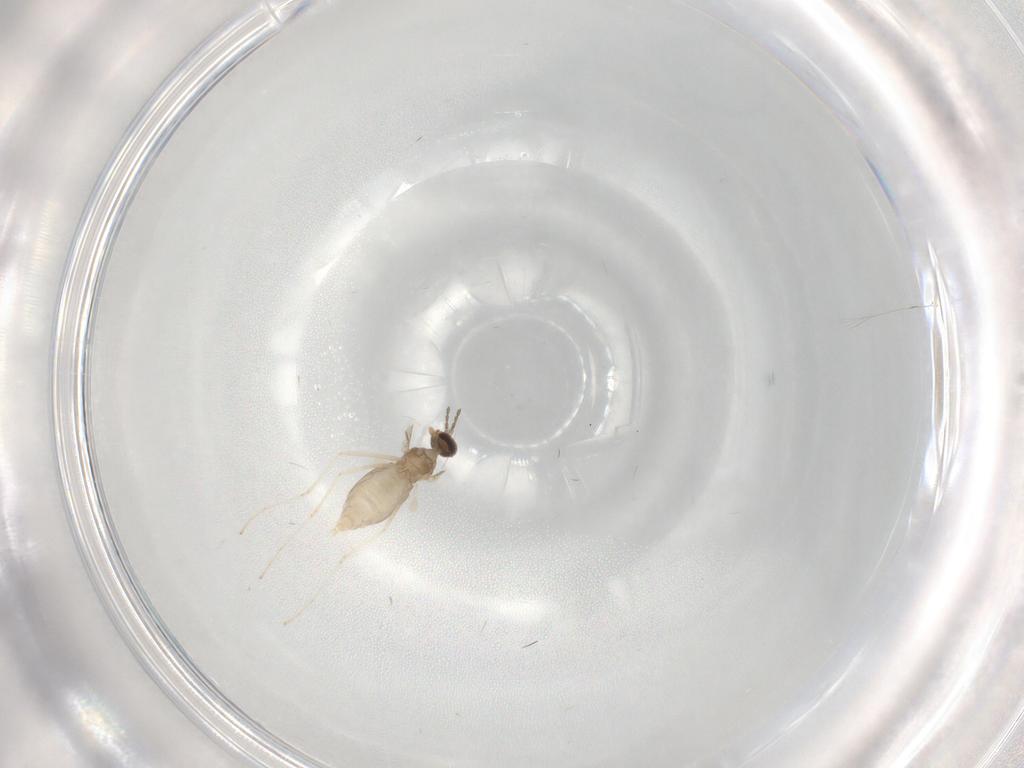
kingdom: Animalia
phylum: Arthropoda
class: Insecta
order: Diptera
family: Cecidomyiidae
